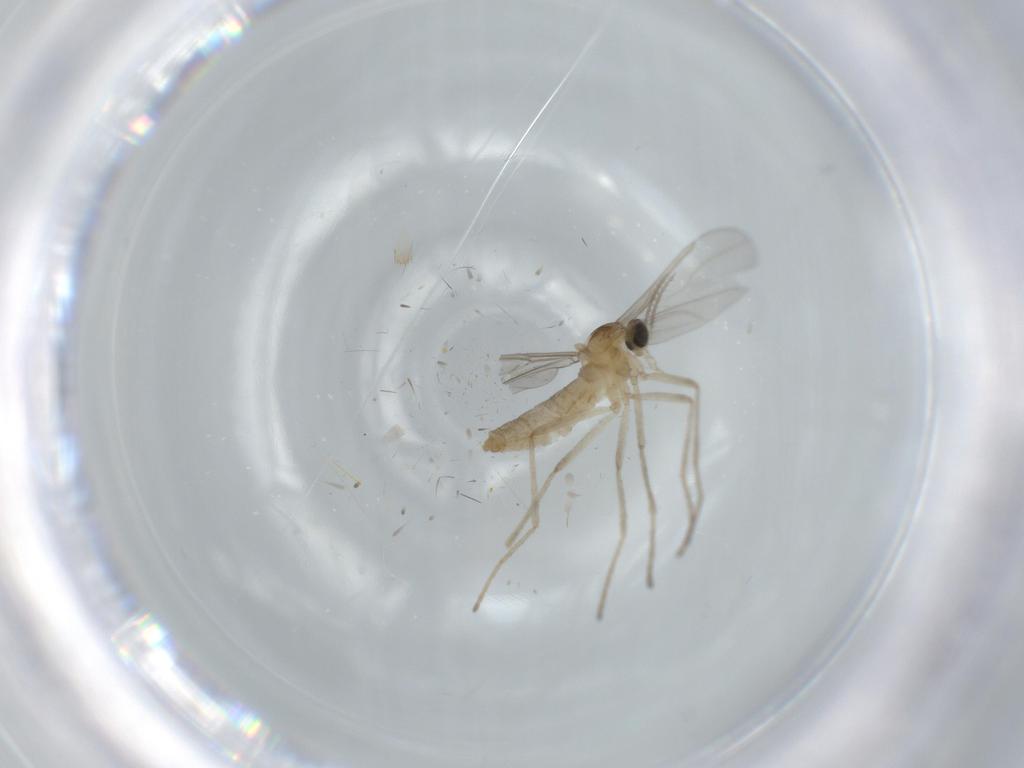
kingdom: Animalia
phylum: Arthropoda
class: Insecta
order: Diptera
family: Cecidomyiidae
